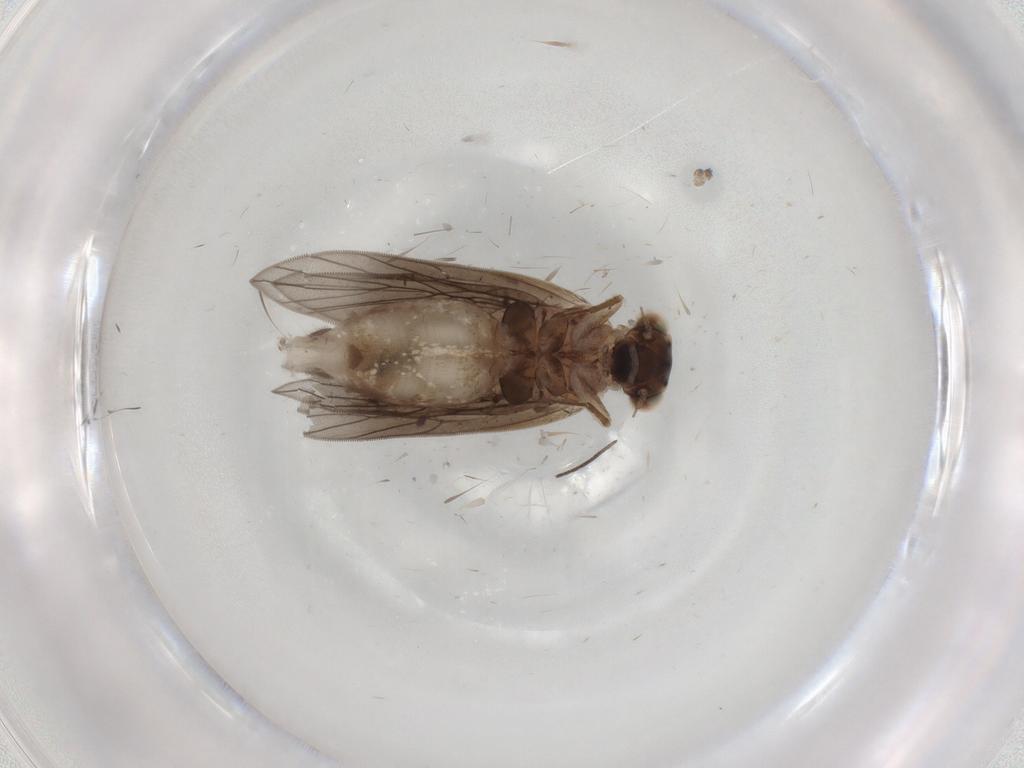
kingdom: Animalia
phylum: Arthropoda
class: Insecta
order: Psocodea
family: Lepidopsocidae
